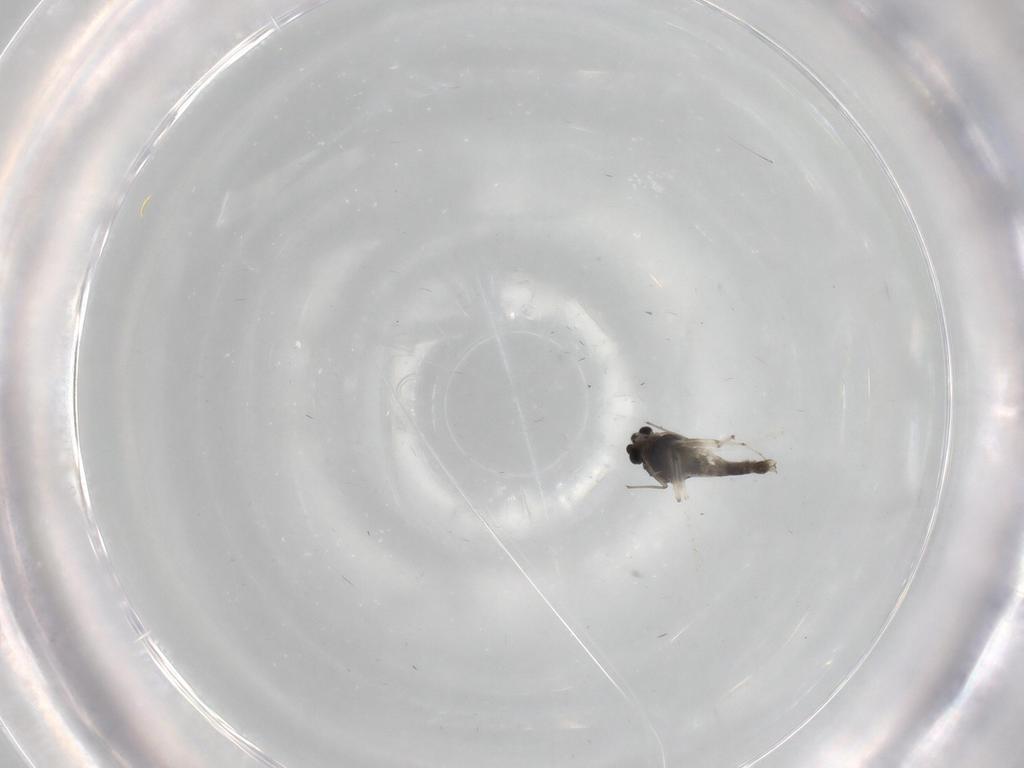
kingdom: Animalia
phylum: Arthropoda
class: Insecta
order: Diptera
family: Chironomidae
